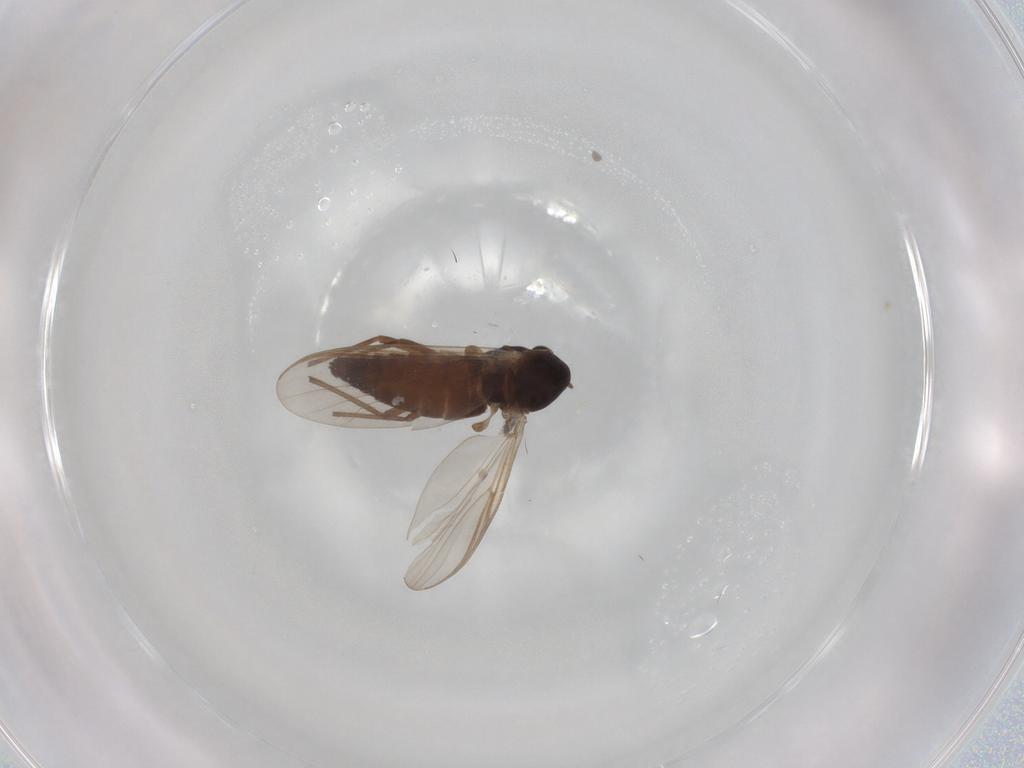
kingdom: Animalia
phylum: Arthropoda
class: Insecta
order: Diptera
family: Chironomidae
